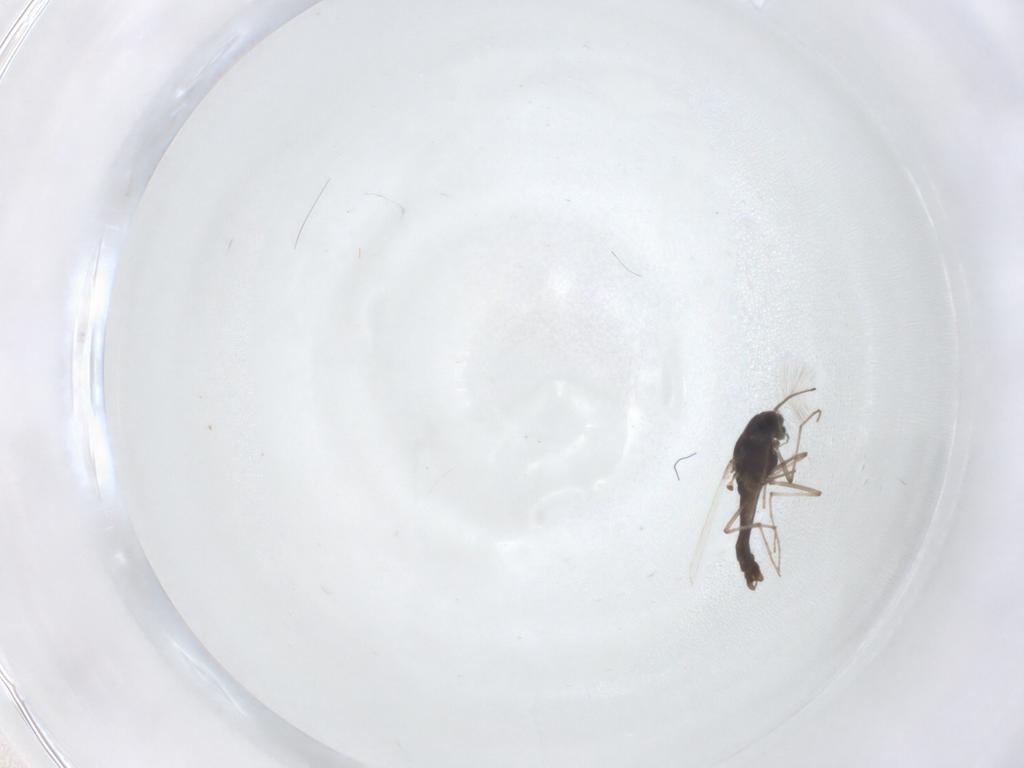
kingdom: Animalia
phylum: Arthropoda
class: Insecta
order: Diptera
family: Chironomidae
